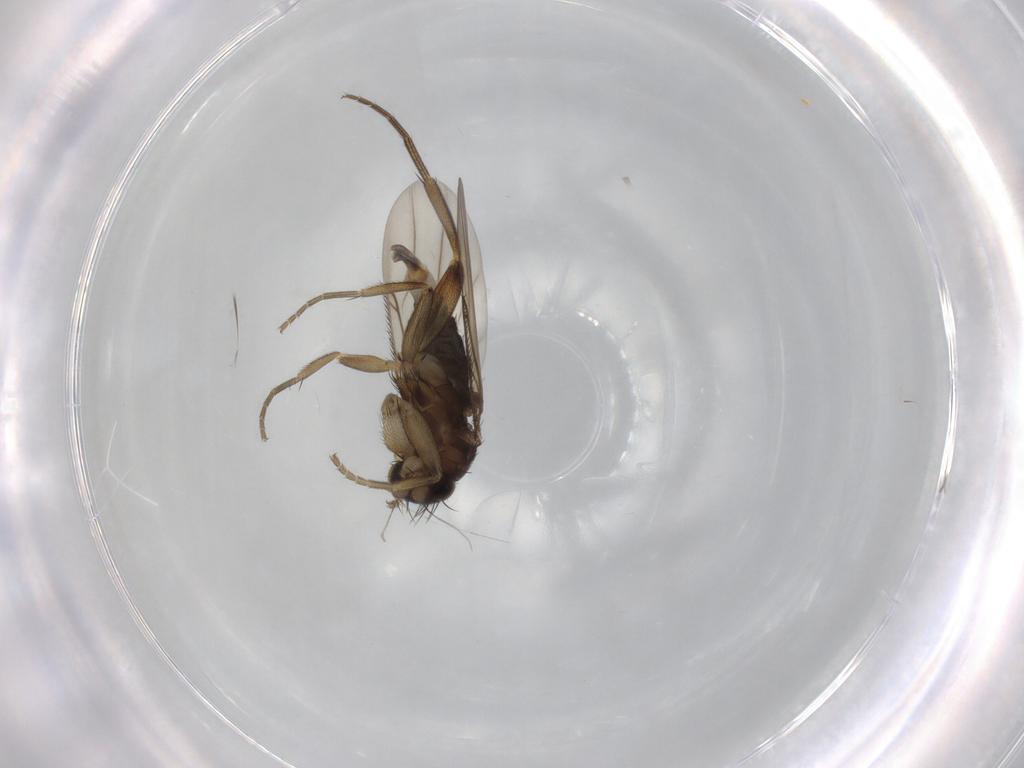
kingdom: Animalia
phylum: Arthropoda
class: Insecta
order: Diptera
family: Phoridae
